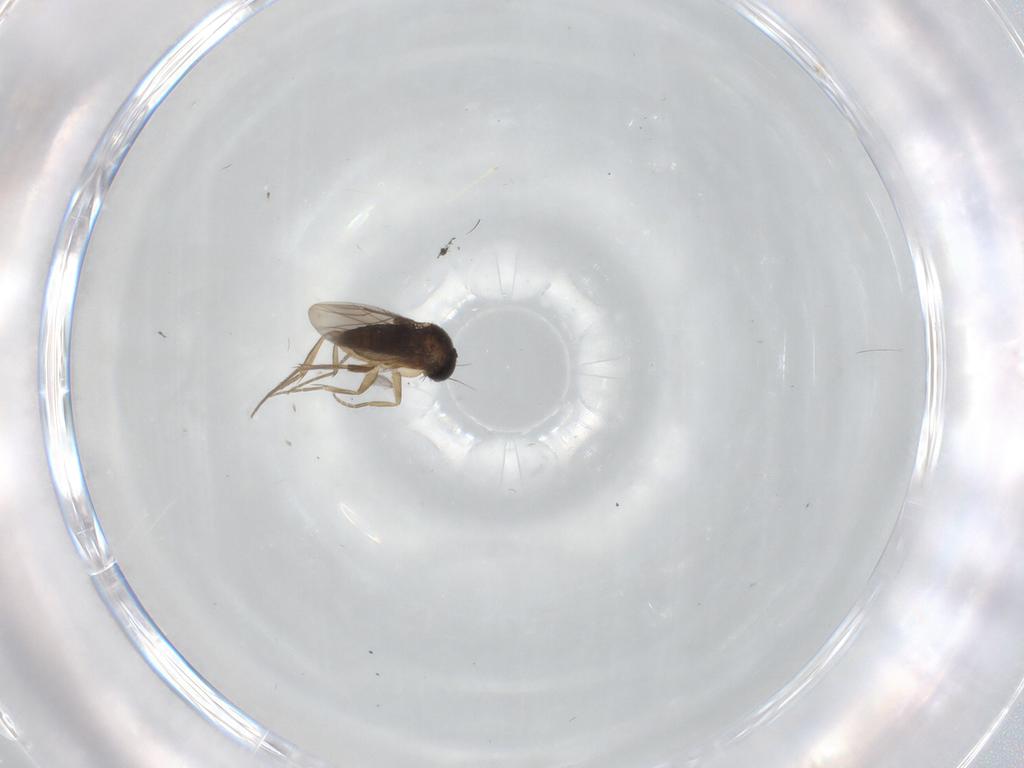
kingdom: Animalia
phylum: Arthropoda
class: Insecta
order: Diptera
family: Phoridae
